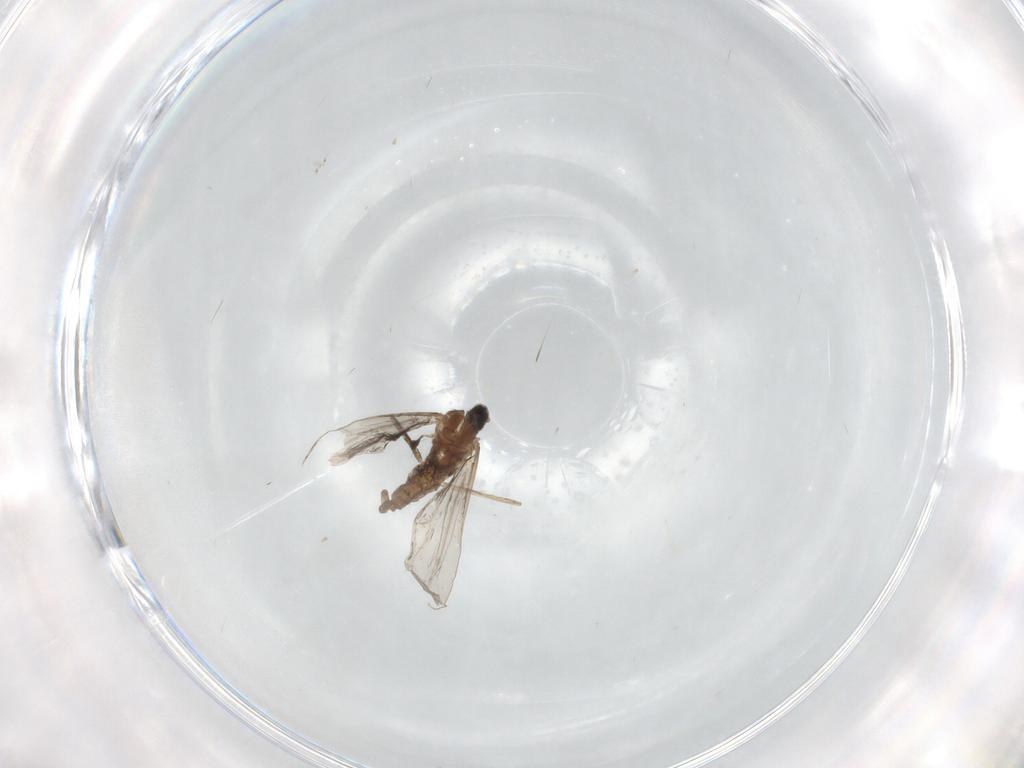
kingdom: Animalia
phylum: Arthropoda
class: Insecta
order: Diptera
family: Cecidomyiidae
